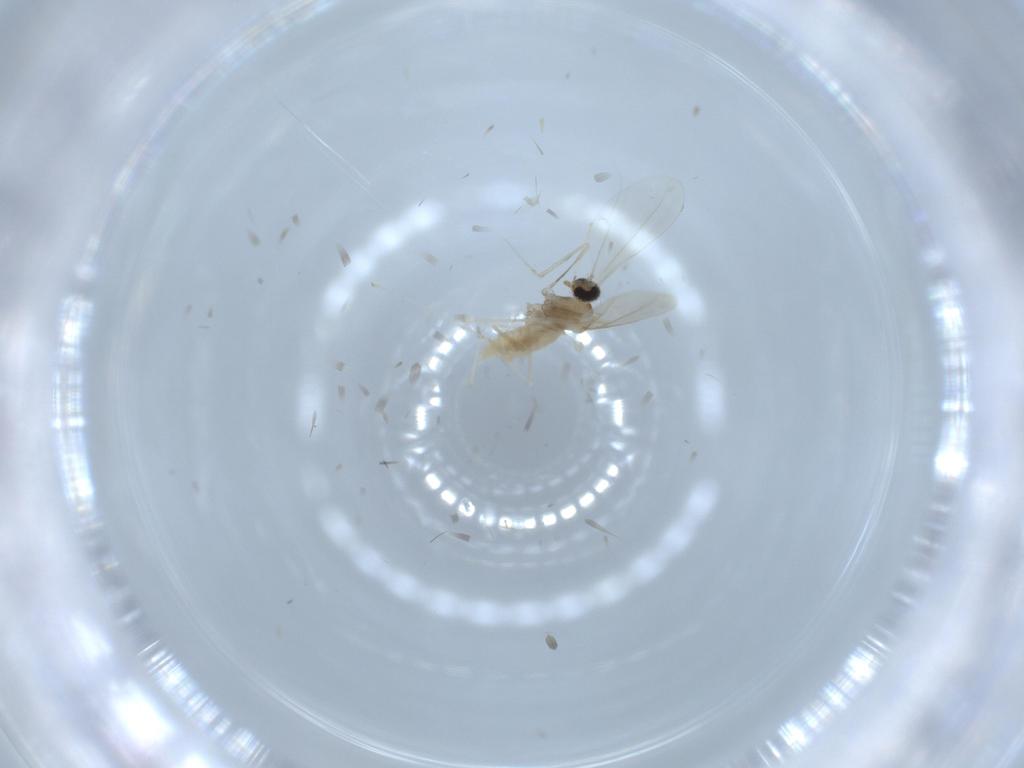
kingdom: Animalia
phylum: Arthropoda
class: Insecta
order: Diptera
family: Cecidomyiidae
